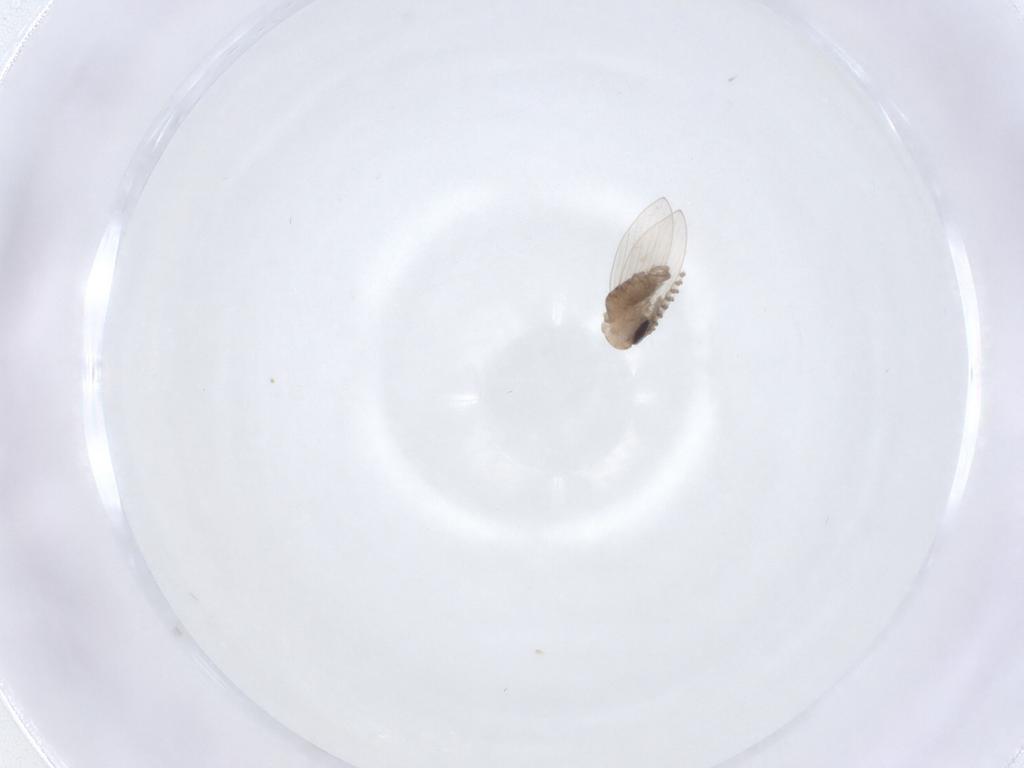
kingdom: Animalia
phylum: Arthropoda
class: Insecta
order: Diptera
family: Psychodidae
